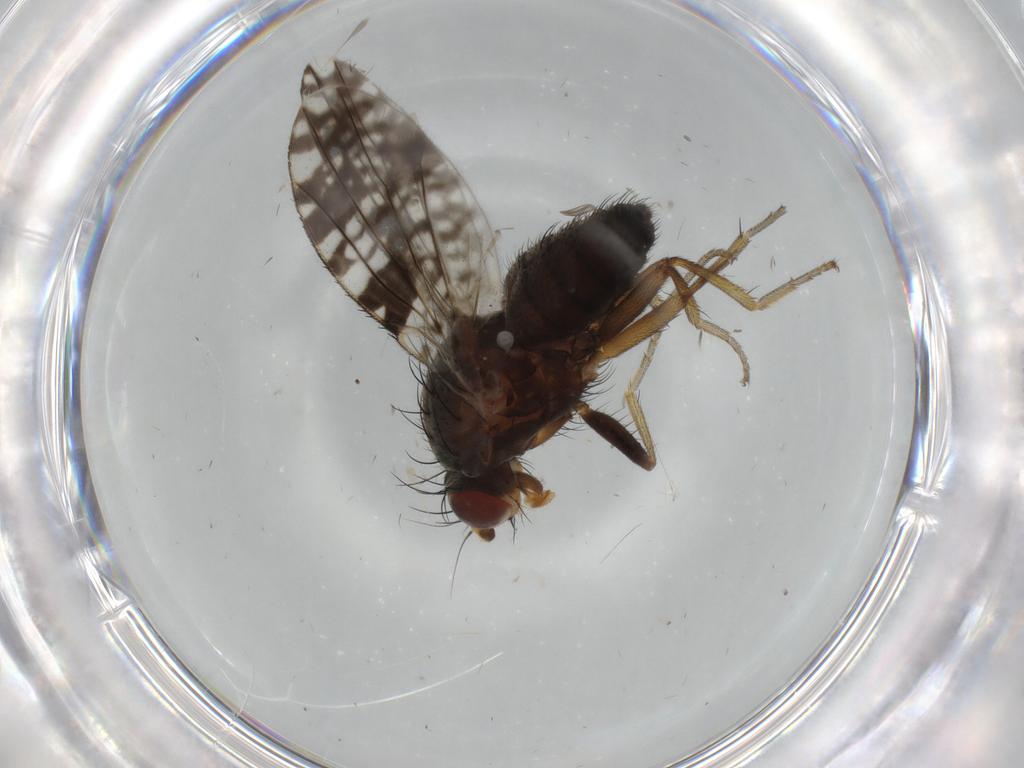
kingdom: Animalia
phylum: Arthropoda
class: Insecta
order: Diptera
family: Tephritidae
